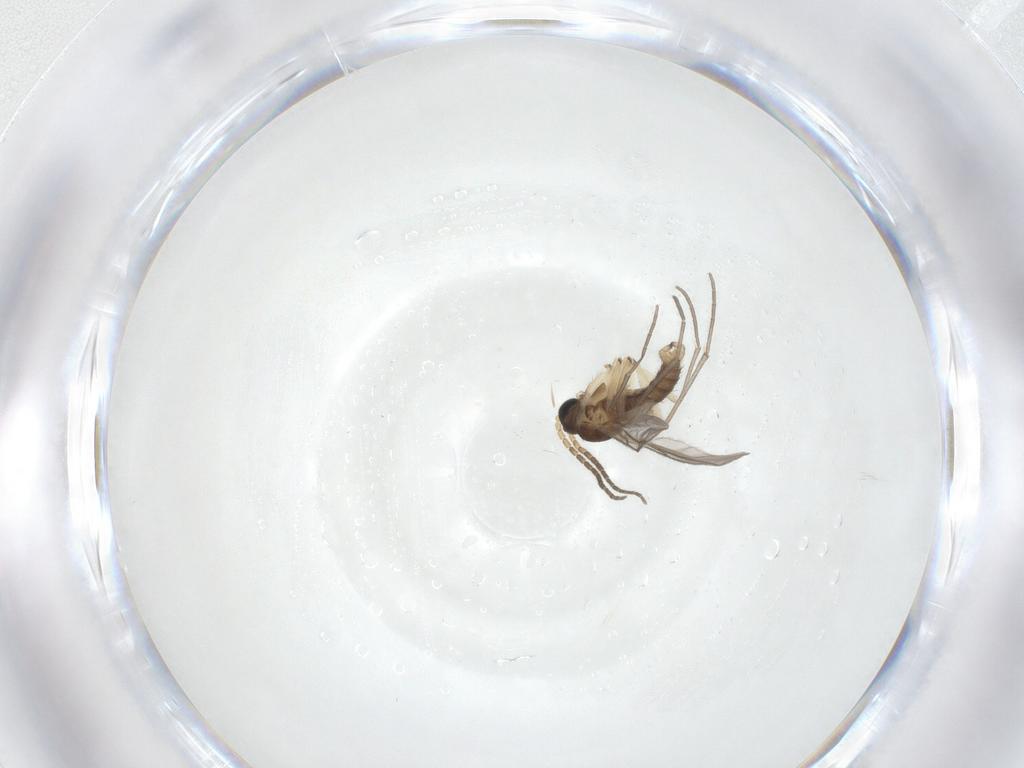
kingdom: Animalia
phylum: Arthropoda
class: Insecta
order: Diptera
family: Sciaridae
